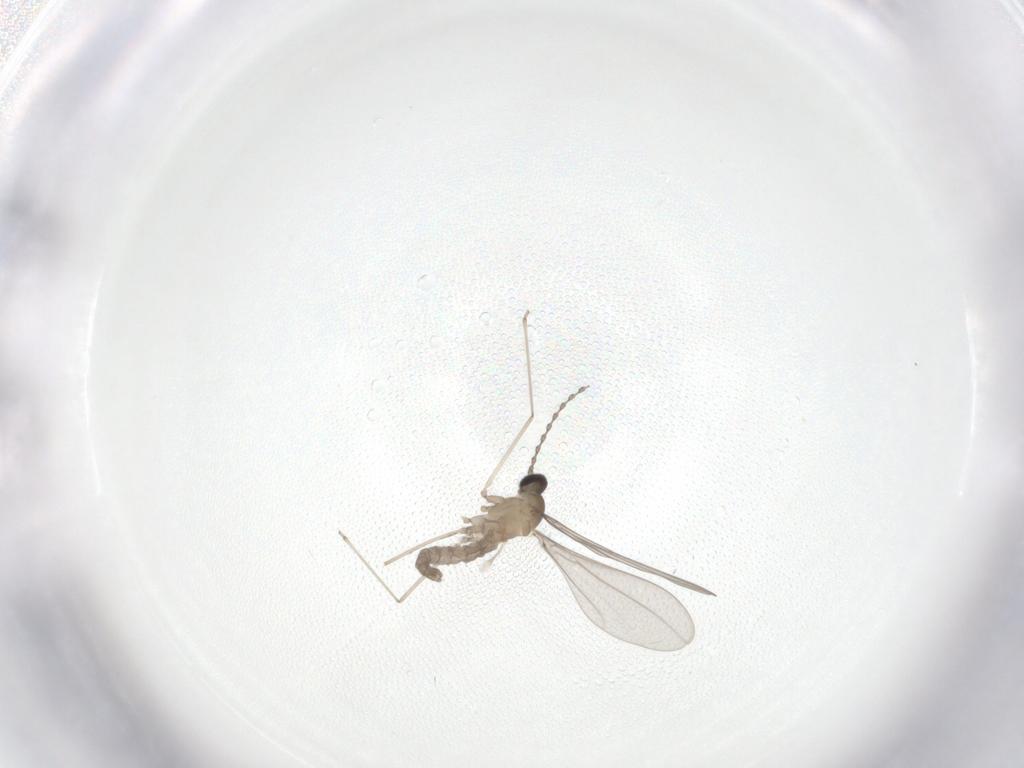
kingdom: Animalia
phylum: Arthropoda
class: Insecta
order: Diptera
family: Cecidomyiidae
